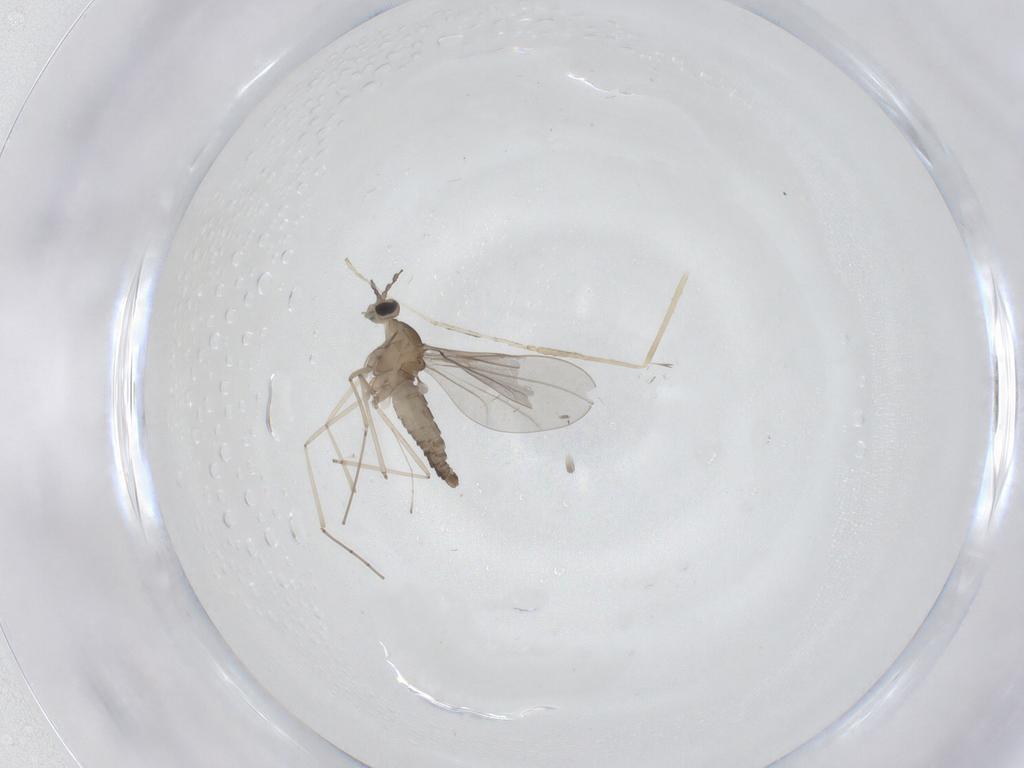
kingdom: Animalia
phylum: Arthropoda
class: Insecta
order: Diptera
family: Cecidomyiidae
